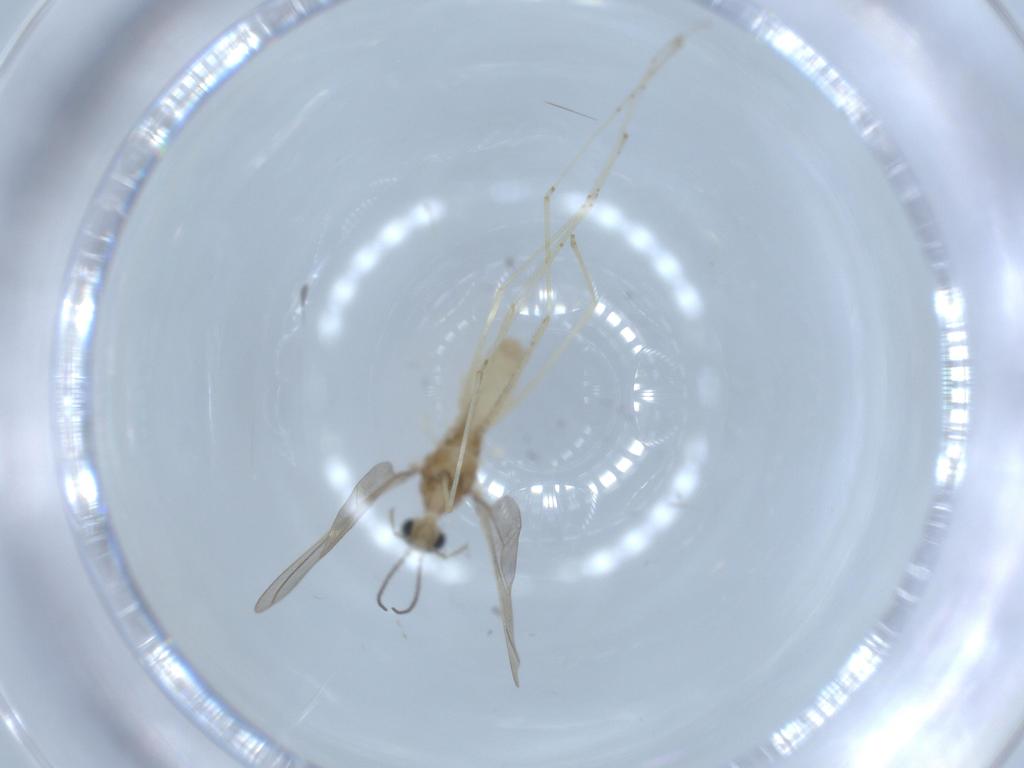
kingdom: Animalia
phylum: Arthropoda
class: Insecta
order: Diptera
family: Cecidomyiidae
